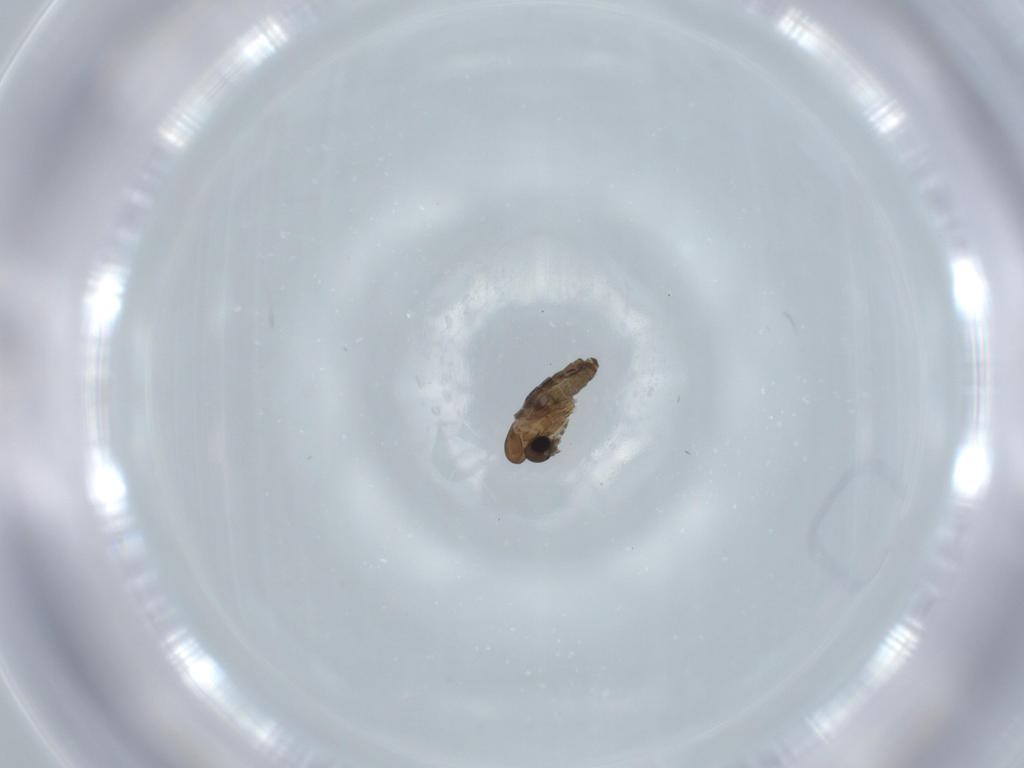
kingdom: Animalia
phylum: Arthropoda
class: Insecta
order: Diptera
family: Psychodidae
